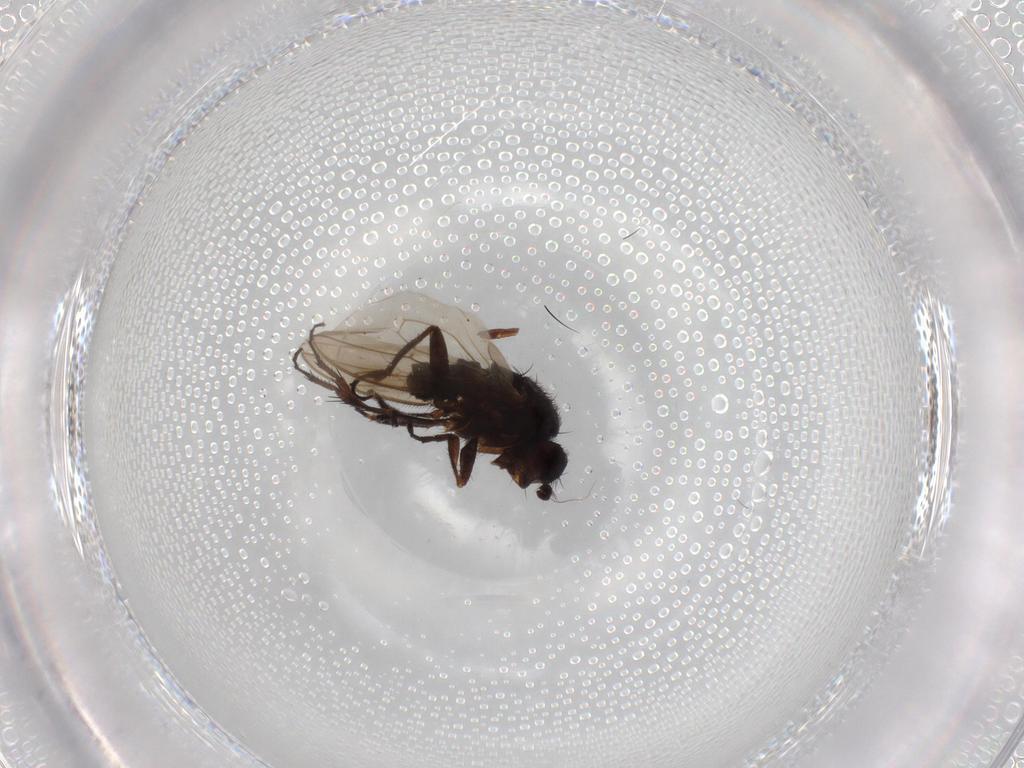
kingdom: Animalia
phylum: Arthropoda
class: Insecta
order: Diptera
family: Sphaeroceridae
